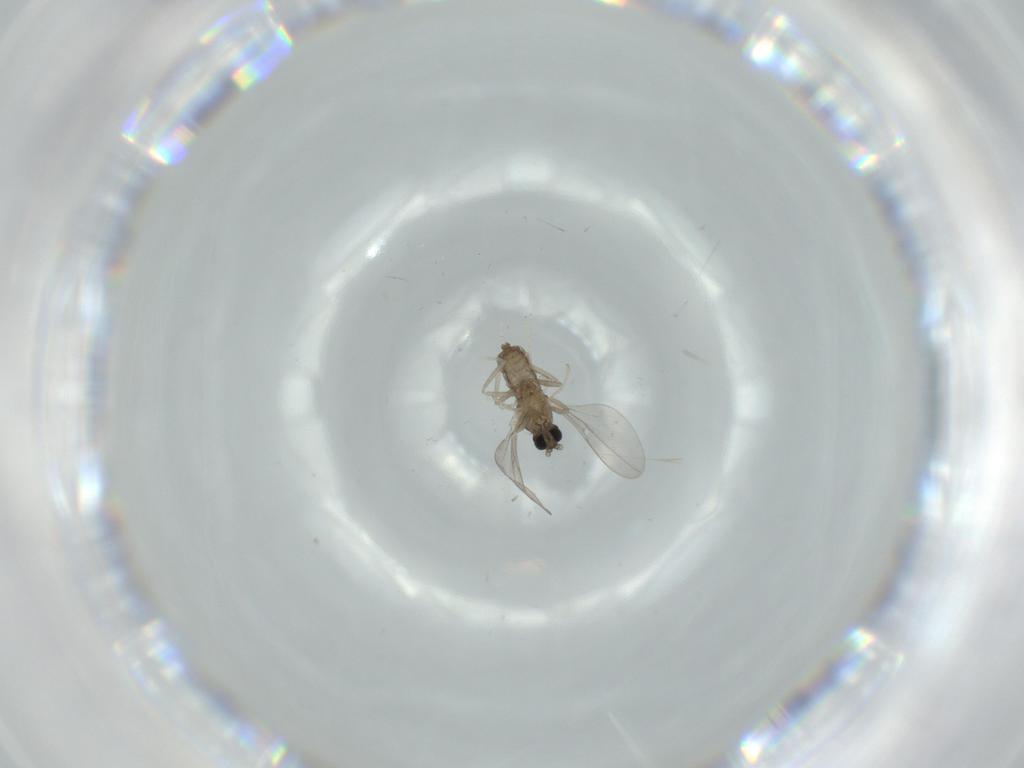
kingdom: Animalia
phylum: Arthropoda
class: Insecta
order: Diptera
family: Cecidomyiidae
